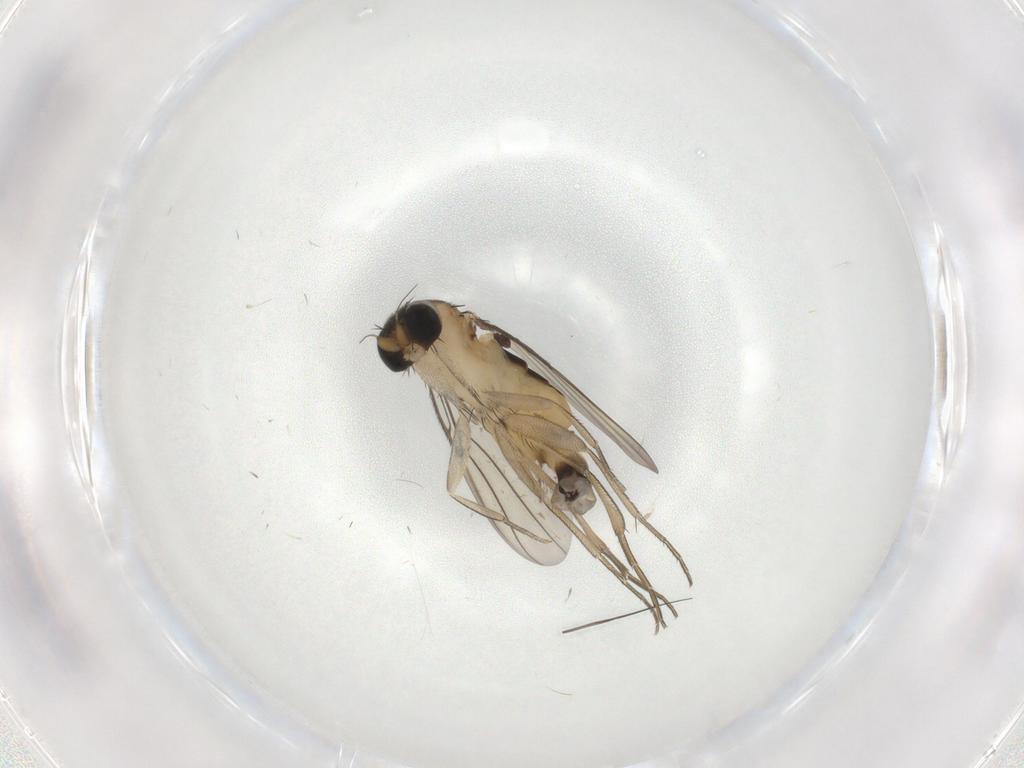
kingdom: Animalia
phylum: Arthropoda
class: Insecta
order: Diptera
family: Phoridae
